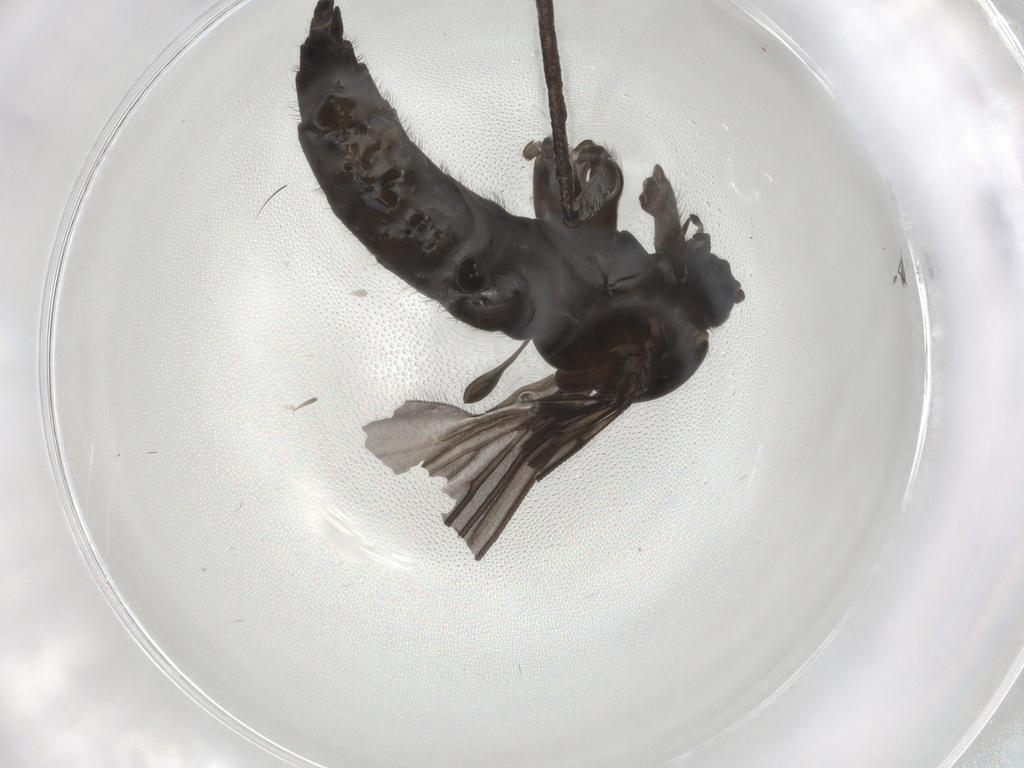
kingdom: Animalia
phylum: Arthropoda
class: Insecta
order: Diptera
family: Sciaridae
